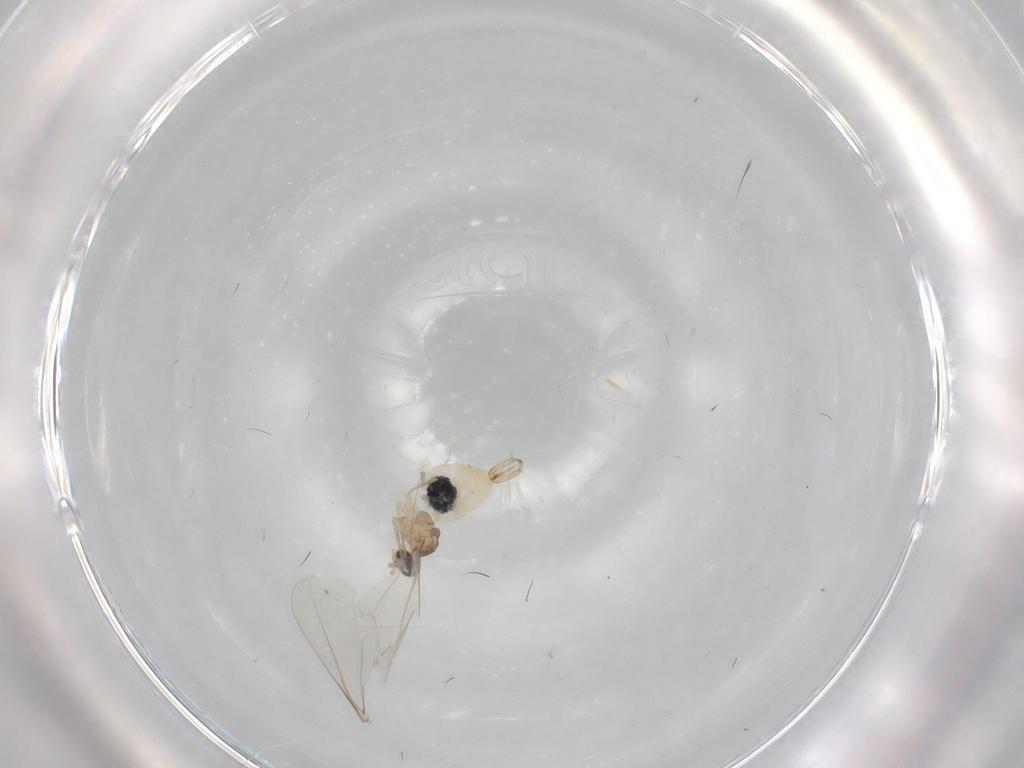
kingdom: Animalia
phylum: Arthropoda
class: Insecta
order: Diptera
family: Cecidomyiidae
